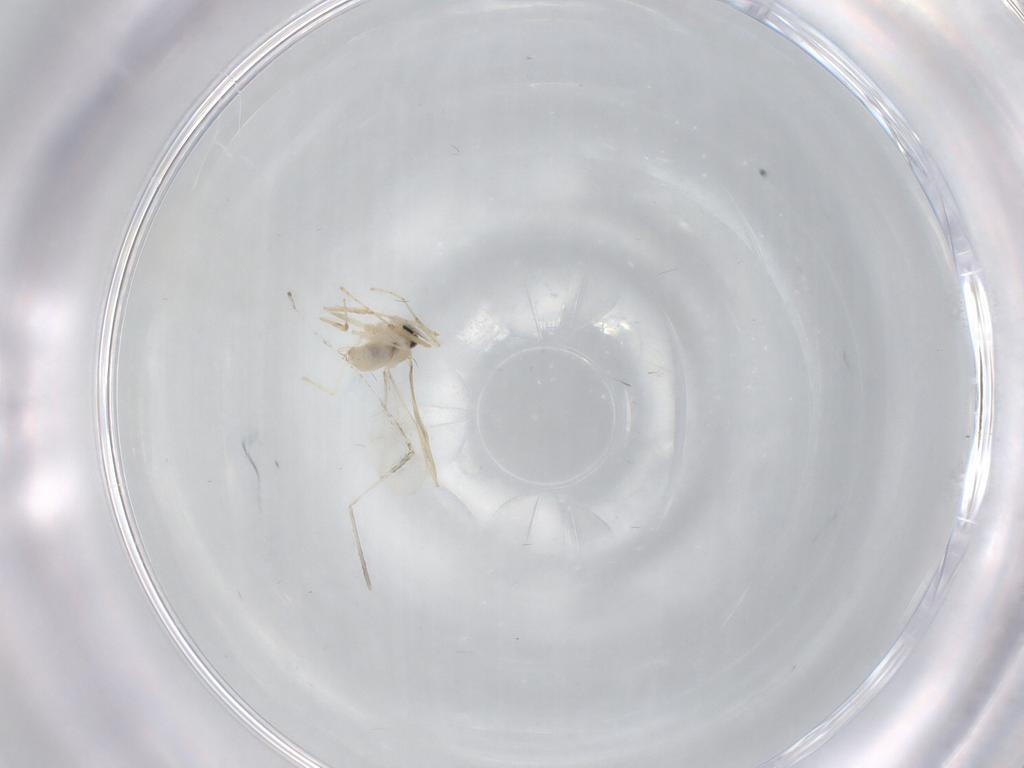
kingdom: Animalia
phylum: Arthropoda
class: Insecta
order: Diptera
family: Cecidomyiidae
